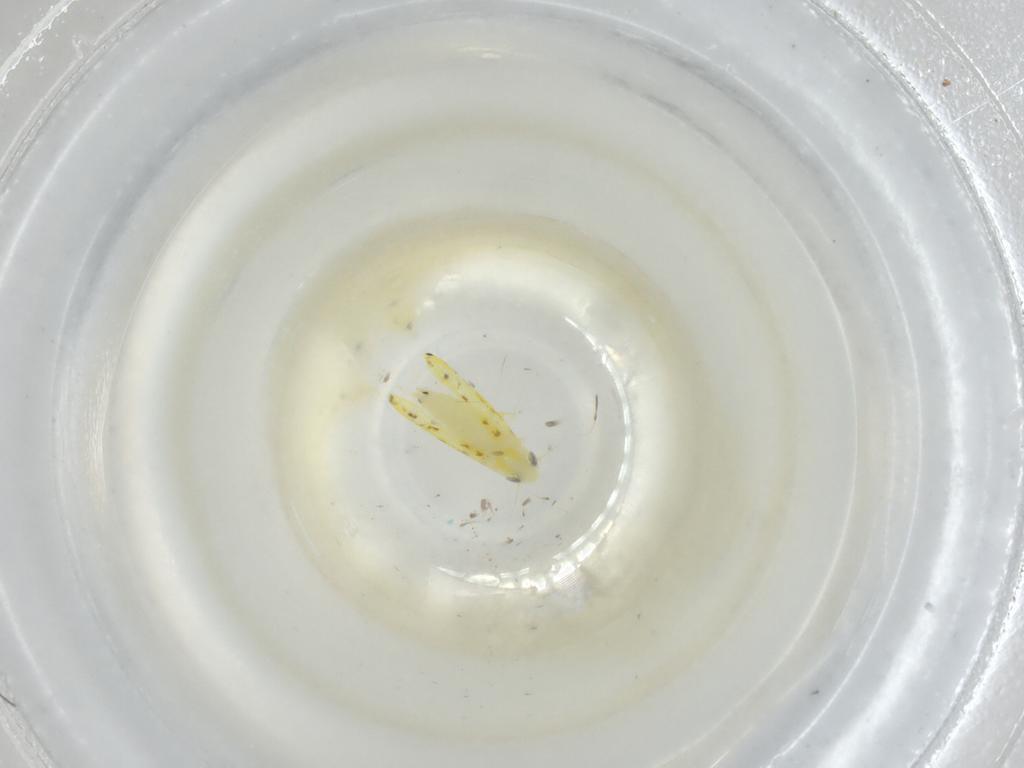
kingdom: Animalia
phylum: Arthropoda
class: Insecta
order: Hemiptera
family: Cicadellidae
